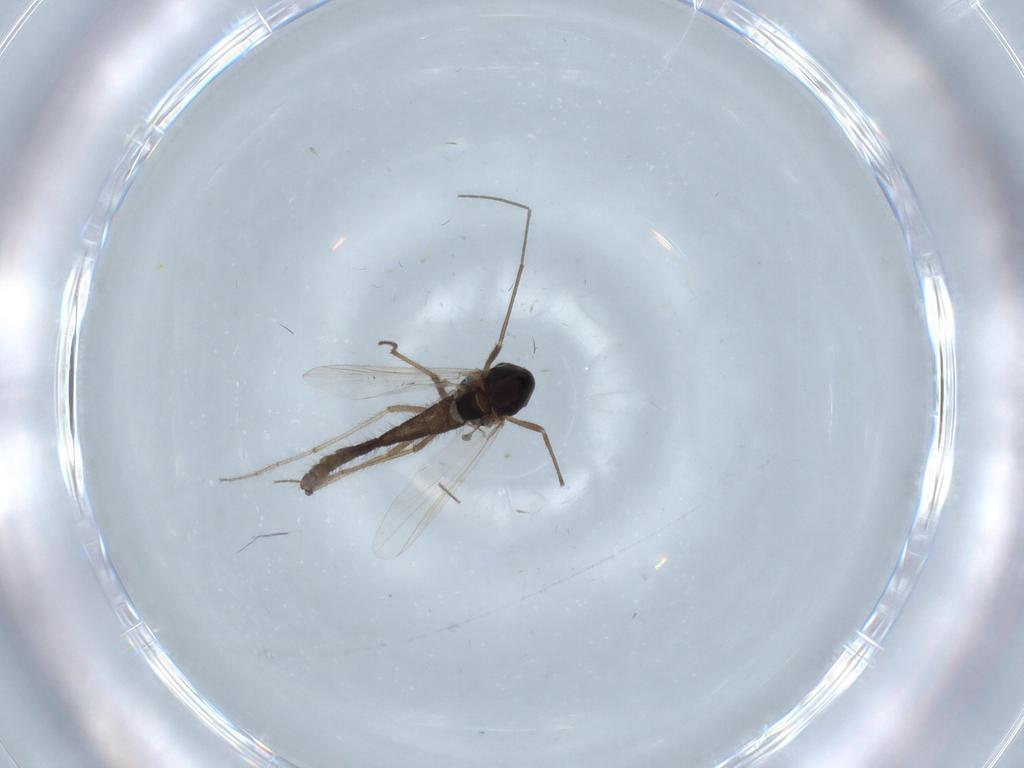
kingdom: Animalia
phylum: Arthropoda
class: Insecta
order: Diptera
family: Chironomidae
